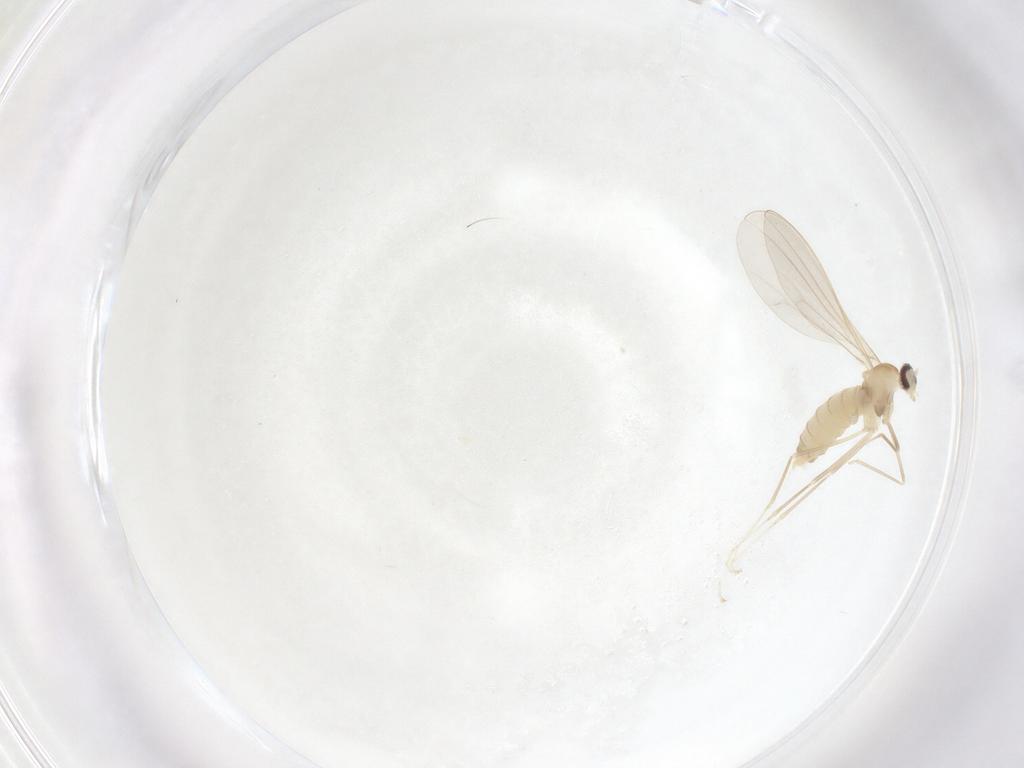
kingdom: Animalia
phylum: Arthropoda
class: Insecta
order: Diptera
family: Cecidomyiidae
